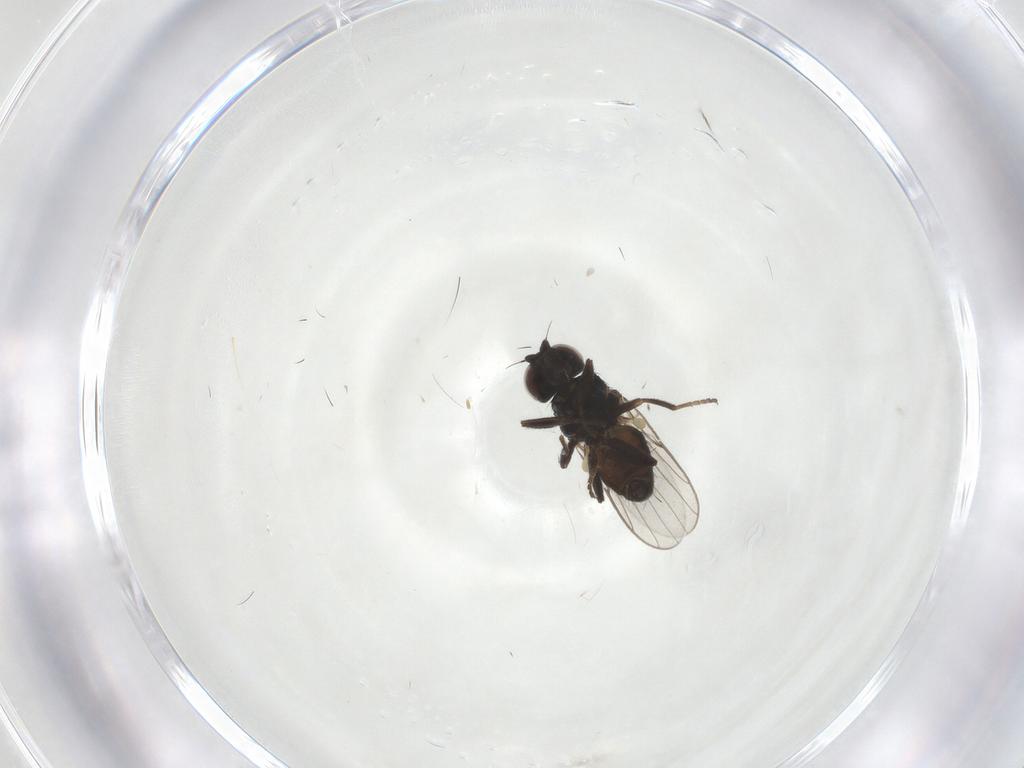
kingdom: Animalia
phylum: Arthropoda
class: Insecta
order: Diptera
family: Chloropidae
